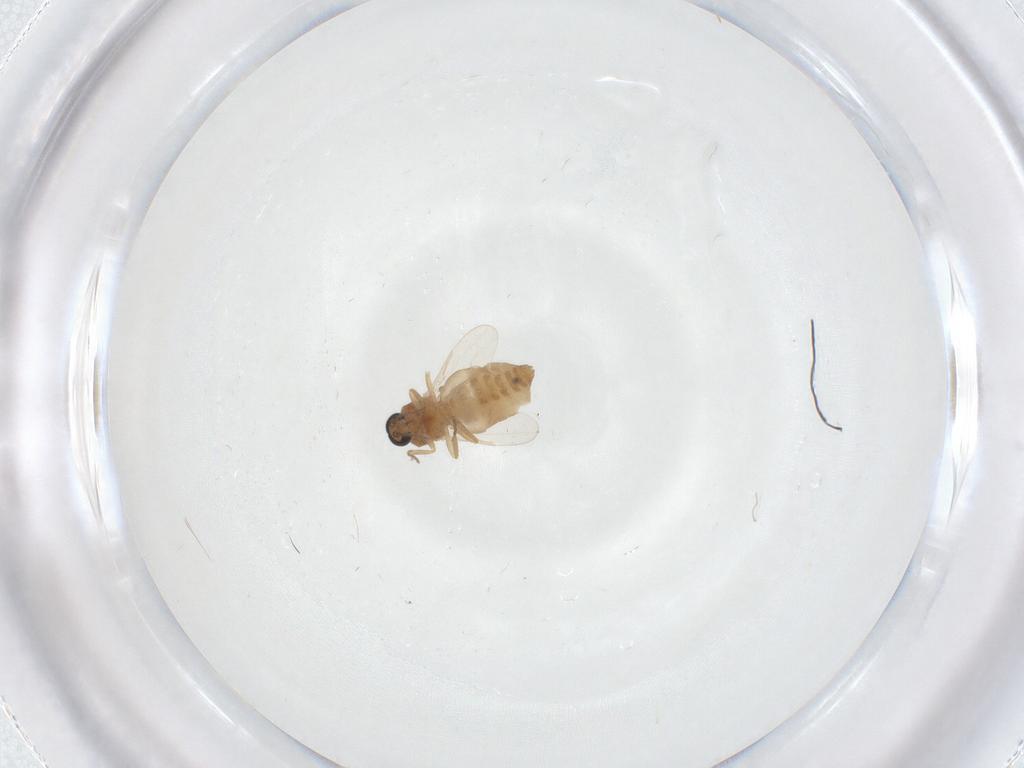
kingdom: Animalia
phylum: Arthropoda
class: Insecta
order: Diptera
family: Ceratopogonidae
